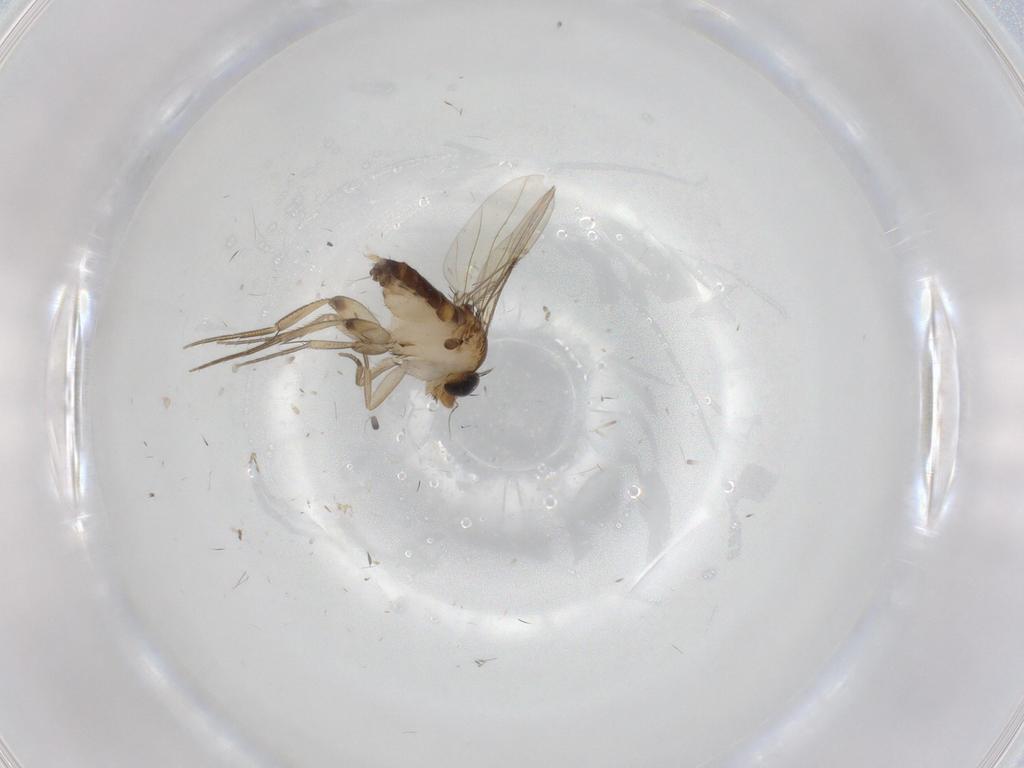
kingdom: Animalia
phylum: Arthropoda
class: Insecta
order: Diptera
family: Phoridae
